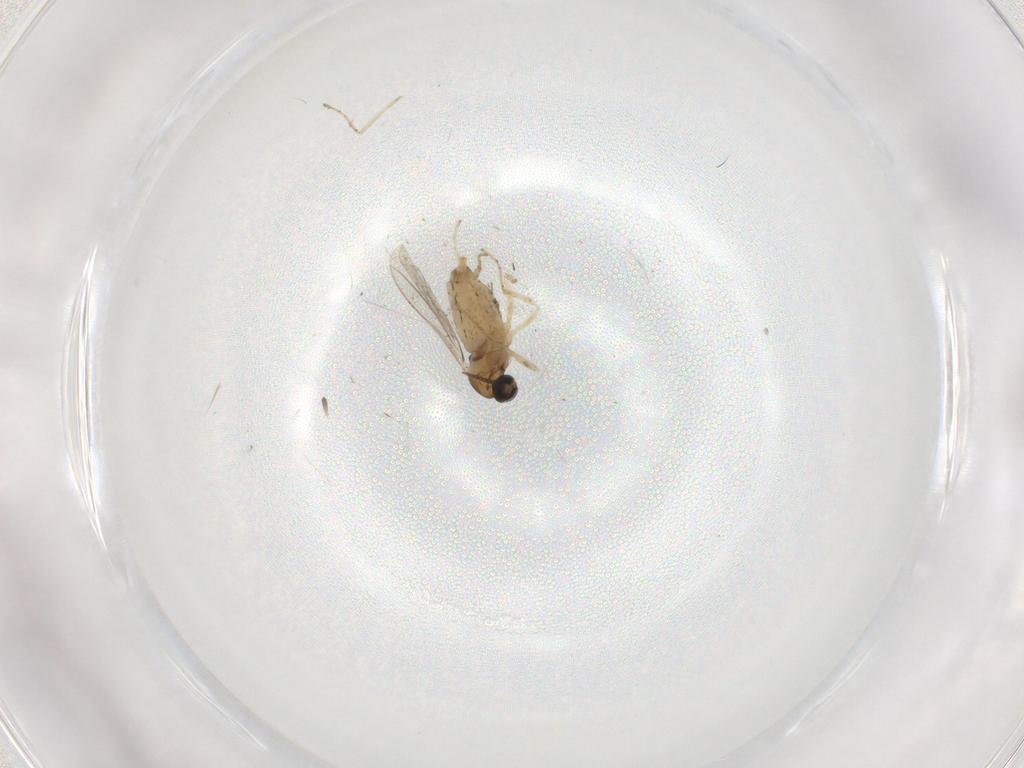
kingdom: Animalia
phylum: Arthropoda
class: Insecta
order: Diptera
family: Cecidomyiidae
